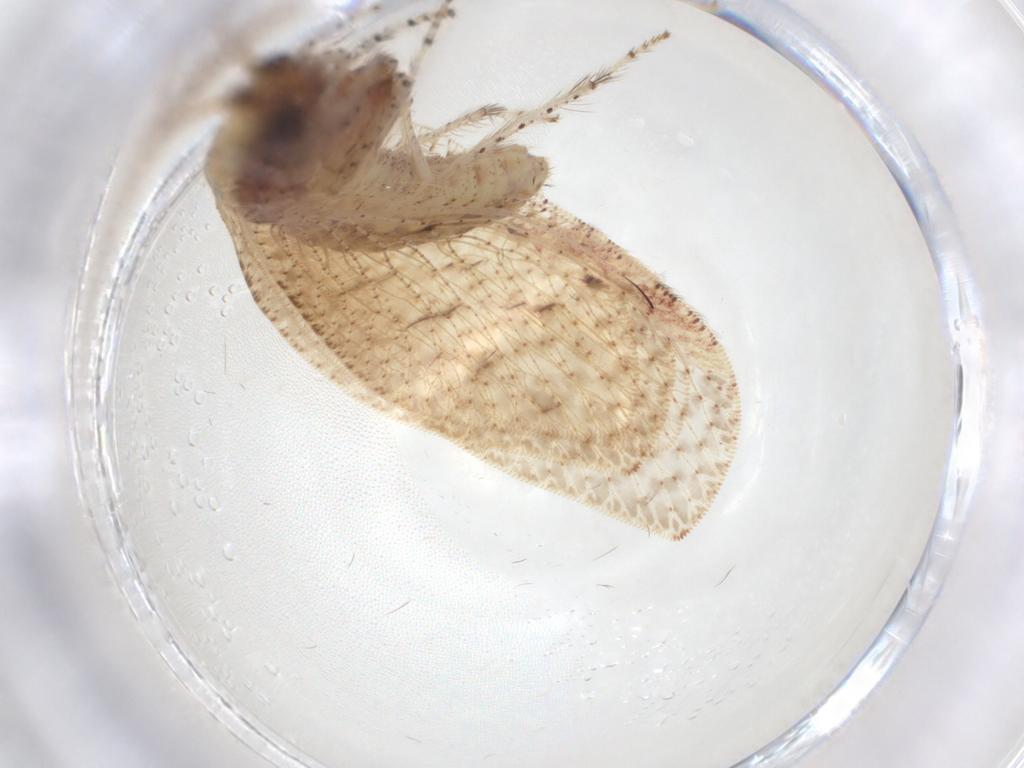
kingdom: Animalia
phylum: Arthropoda
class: Insecta
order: Neuroptera
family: Berothidae
